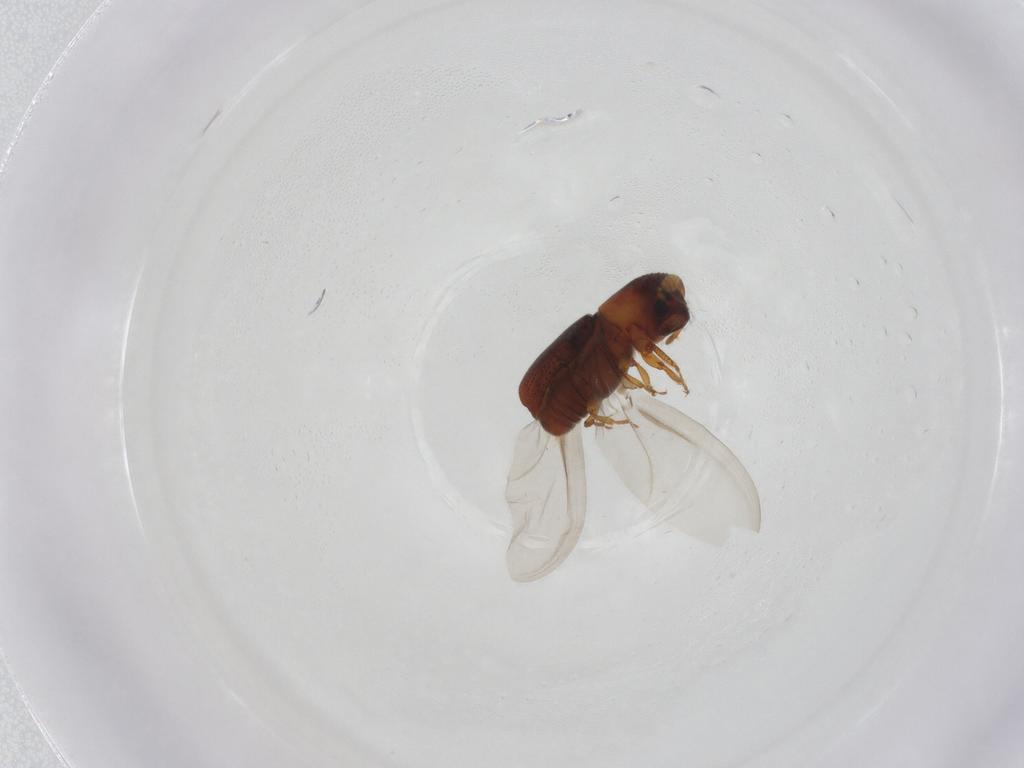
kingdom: Animalia
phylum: Arthropoda
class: Insecta
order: Coleoptera
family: Curculionidae
